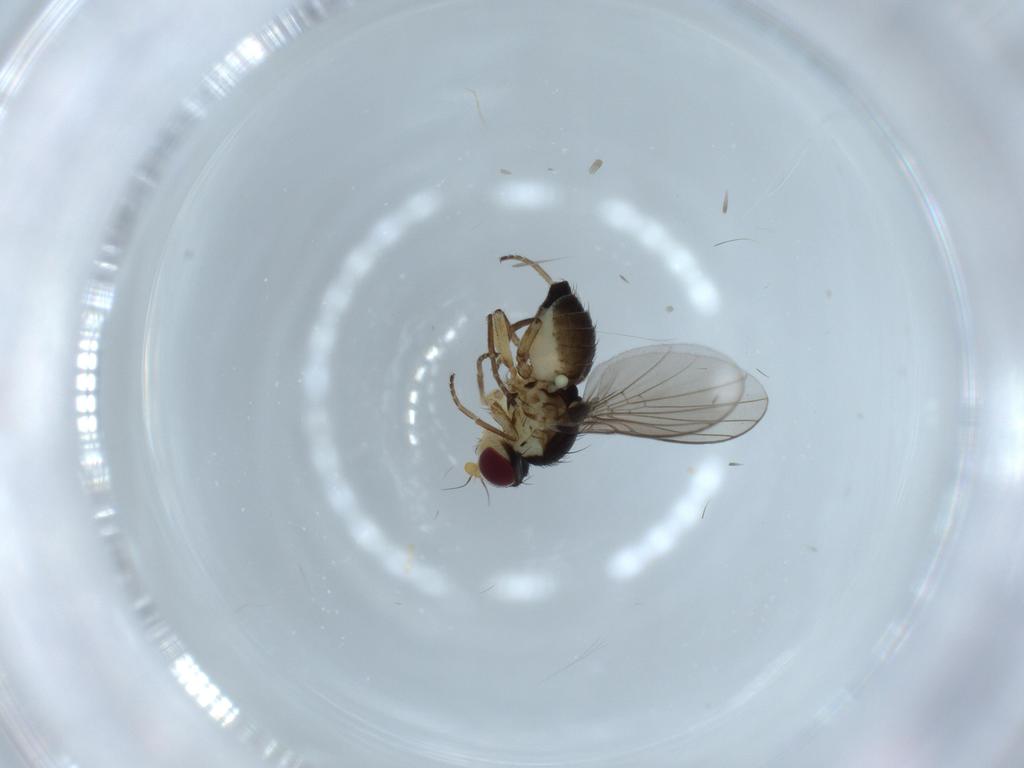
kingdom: Animalia
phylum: Arthropoda
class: Insecta
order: Diptera
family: Agromyzidae
